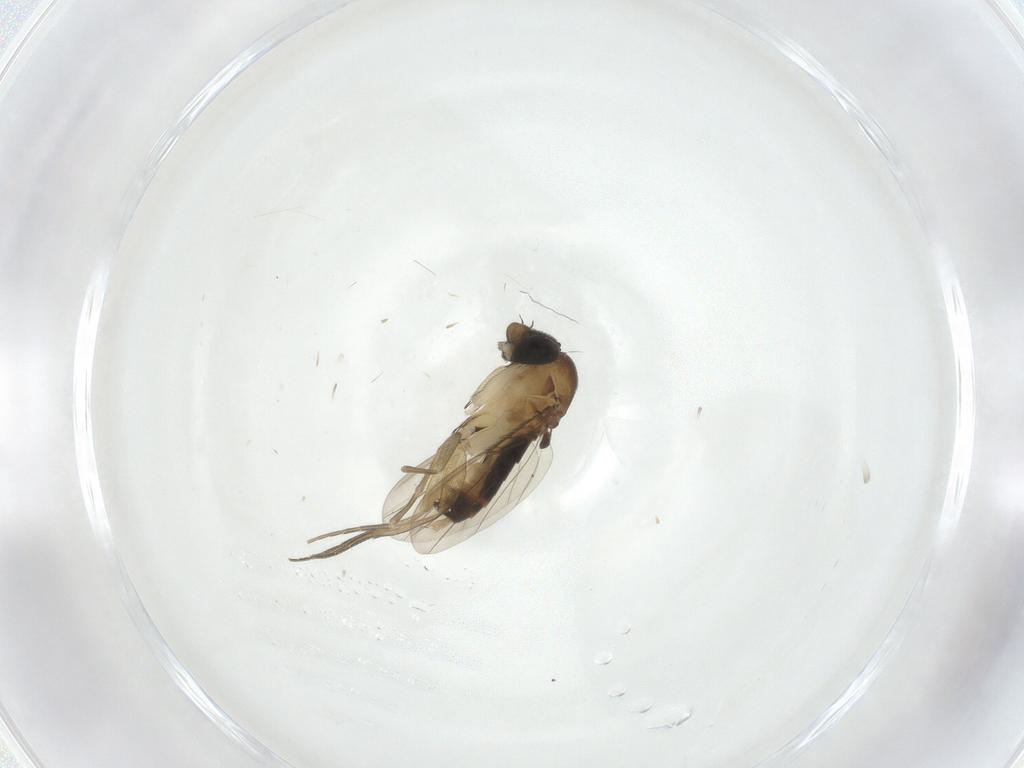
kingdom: Animalia
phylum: Arthropoda
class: Insecta
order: Diptera
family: Phoridae
